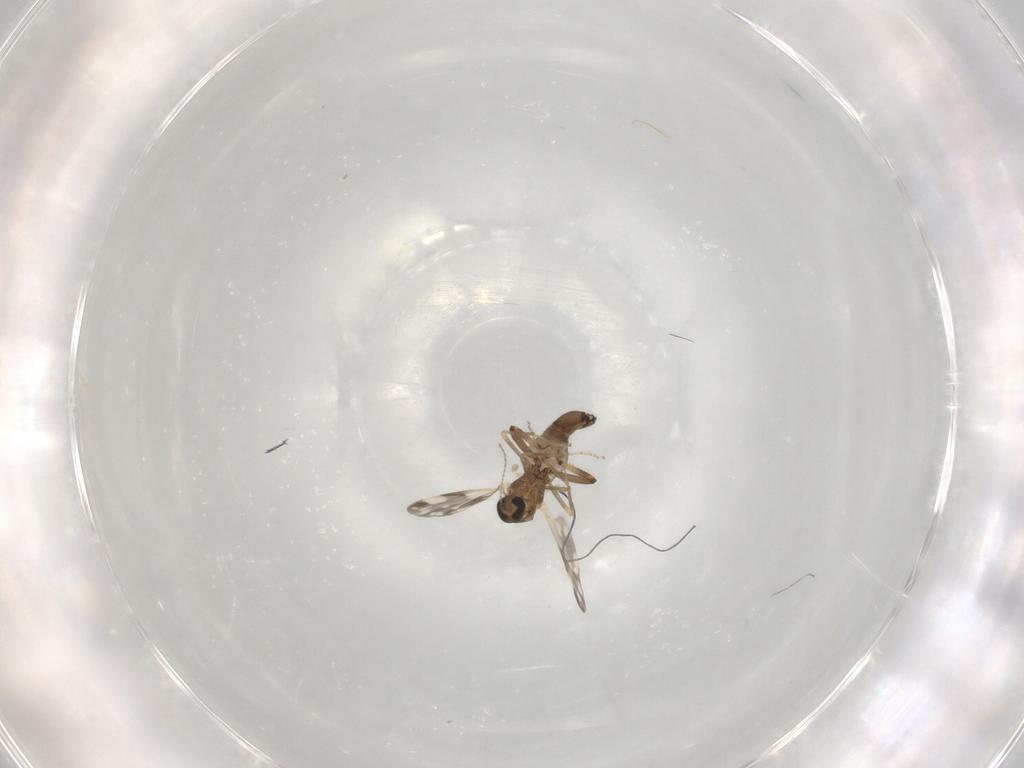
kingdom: Animalia
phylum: Arthropoda
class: Insecta
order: Diptera
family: Ceratopogonidae
